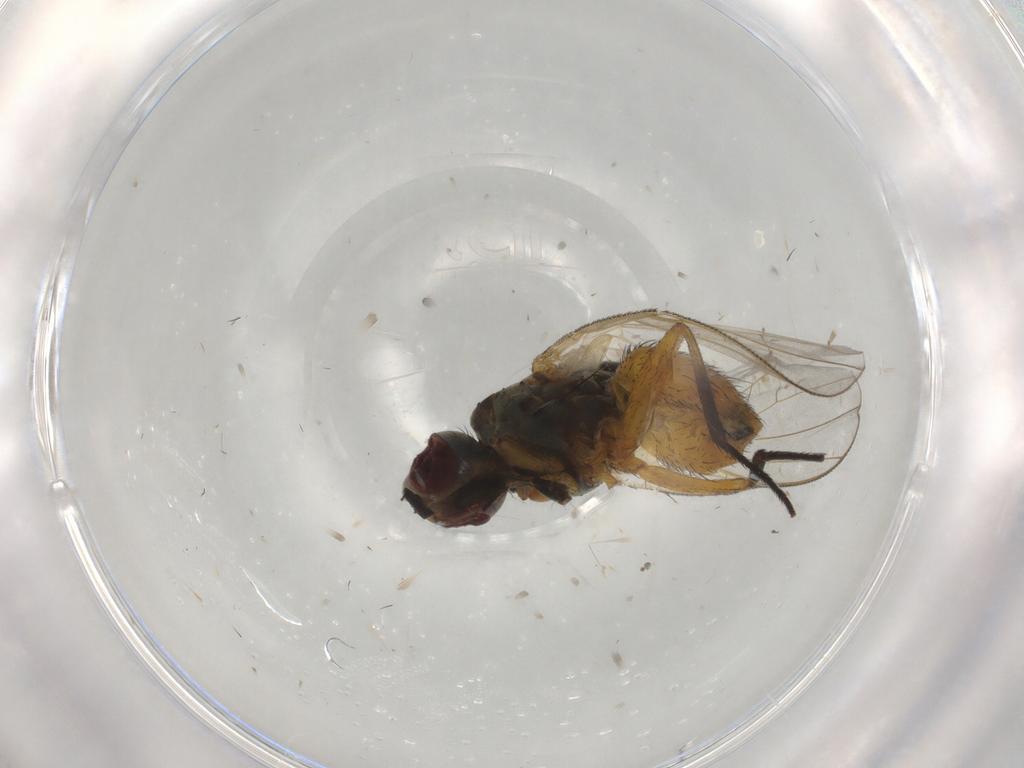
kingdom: Animalia
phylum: Arthropoda
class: Insecta
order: Diptera
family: Muscidae
